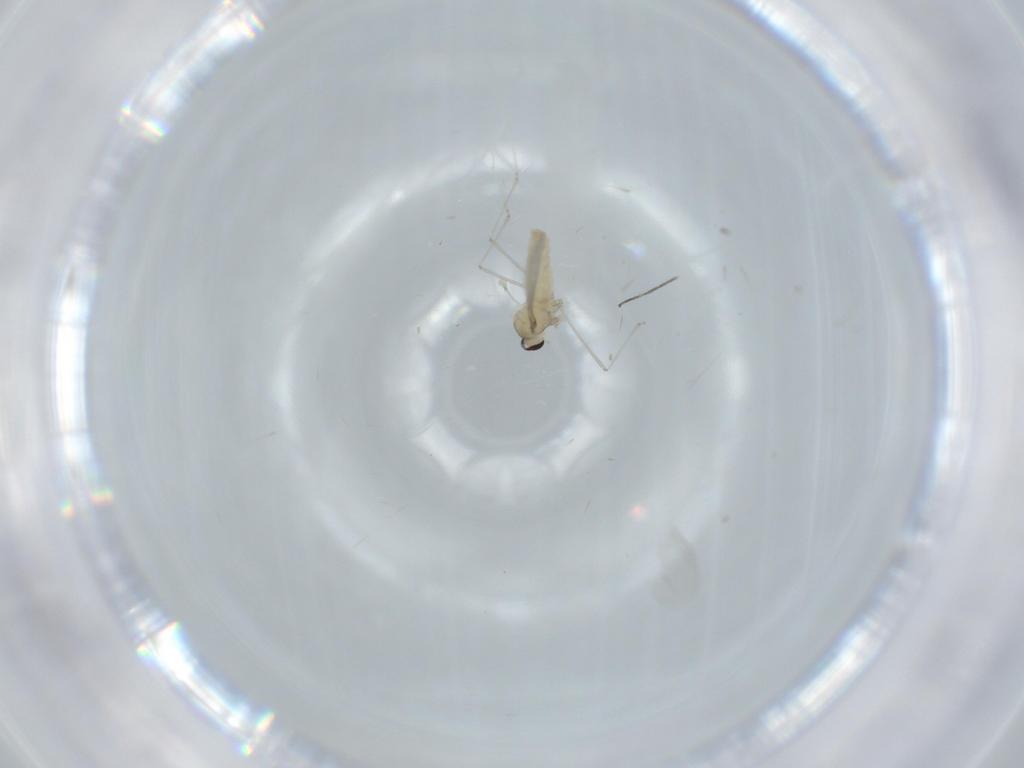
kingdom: Animalia
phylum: Arthropoda
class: Insecta
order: Diptera
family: Cecidomyiidae
